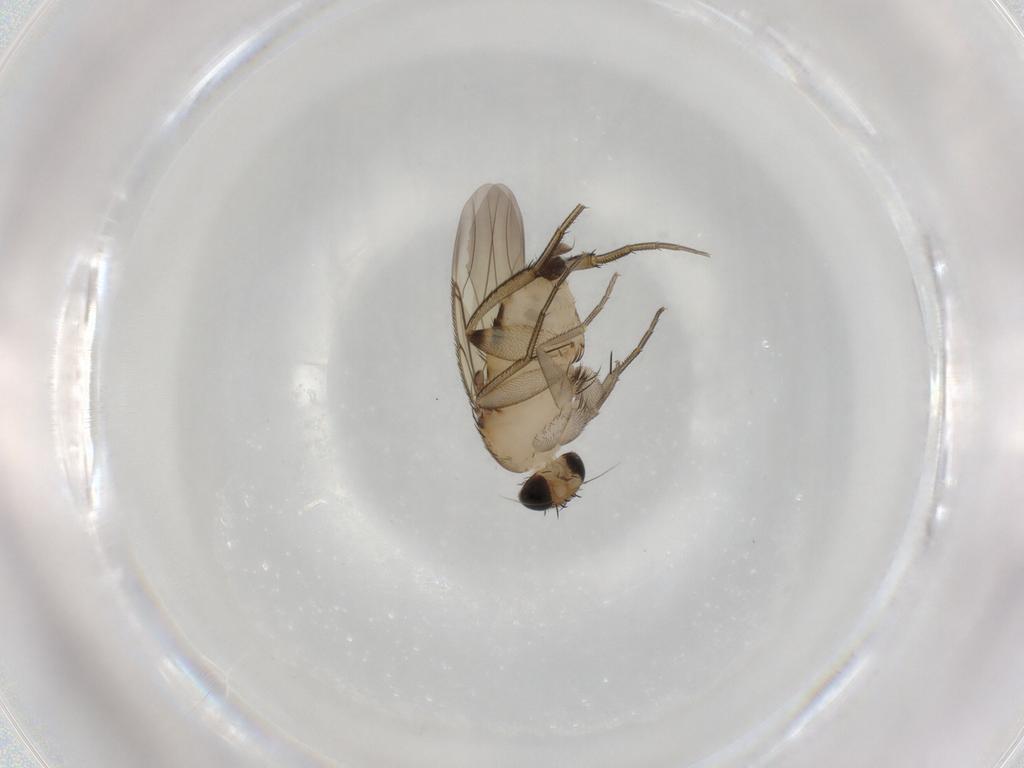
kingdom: Animalia
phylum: Arthropoda
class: Insecta
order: Diptera
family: Phoridae
